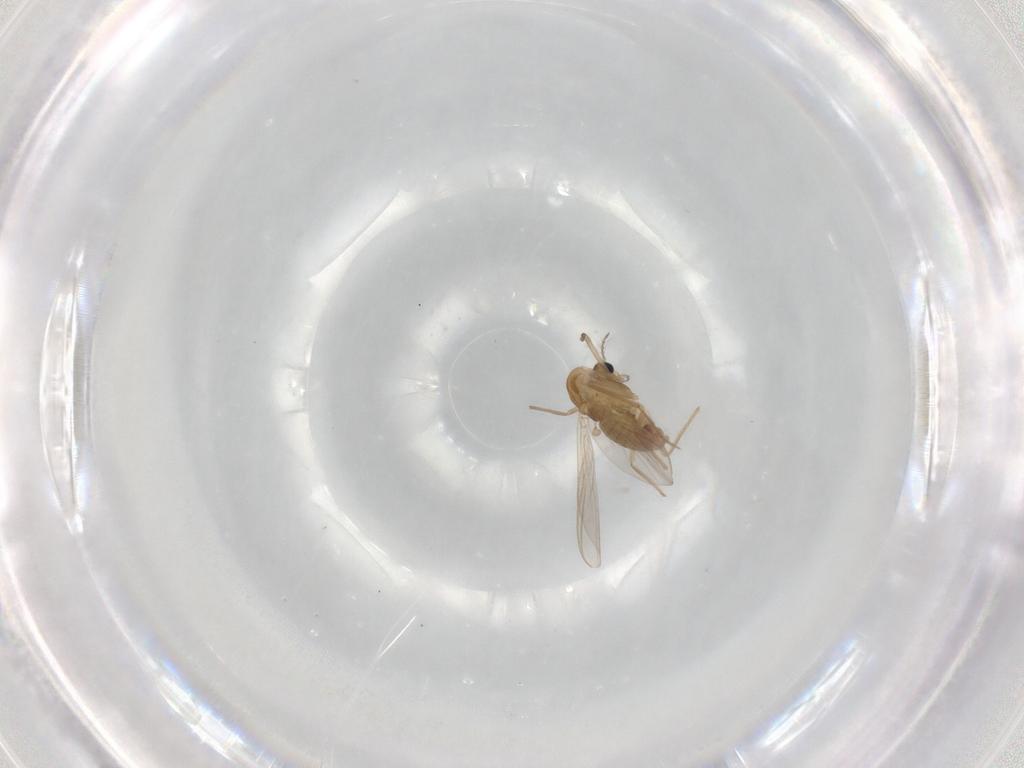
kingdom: Animalia
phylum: Arthropoda
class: Insecta
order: Diptera
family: Chironomidae
